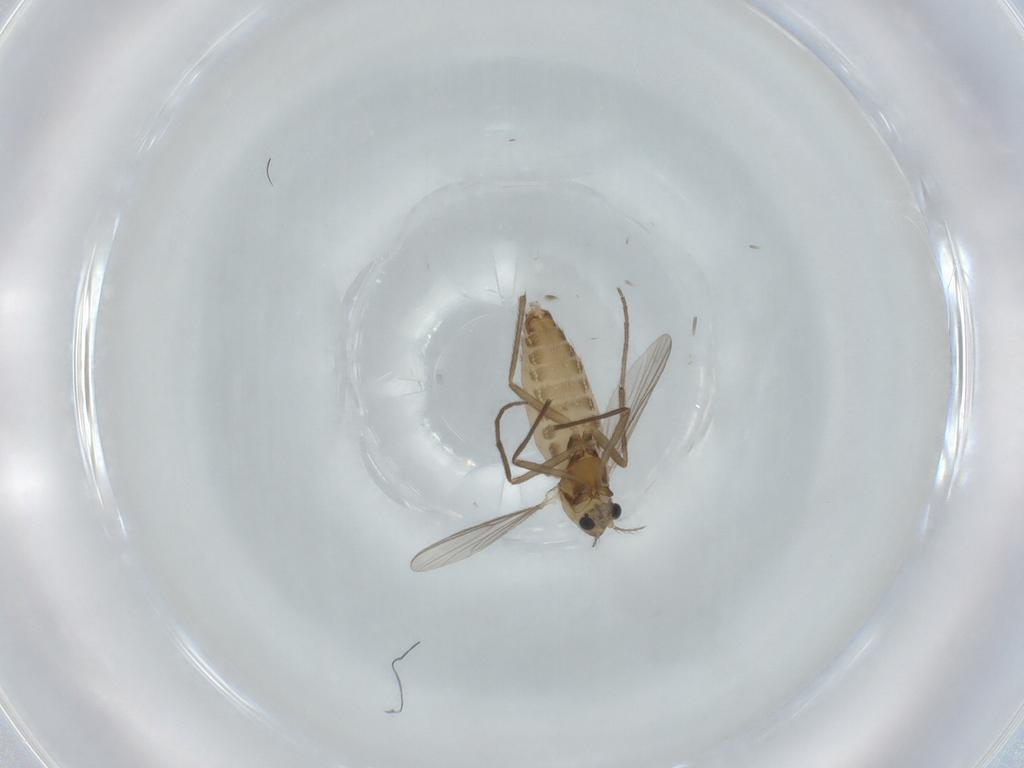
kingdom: Animalia
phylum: Arthropoda
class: Insecta
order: Diptera
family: Chironomidae
